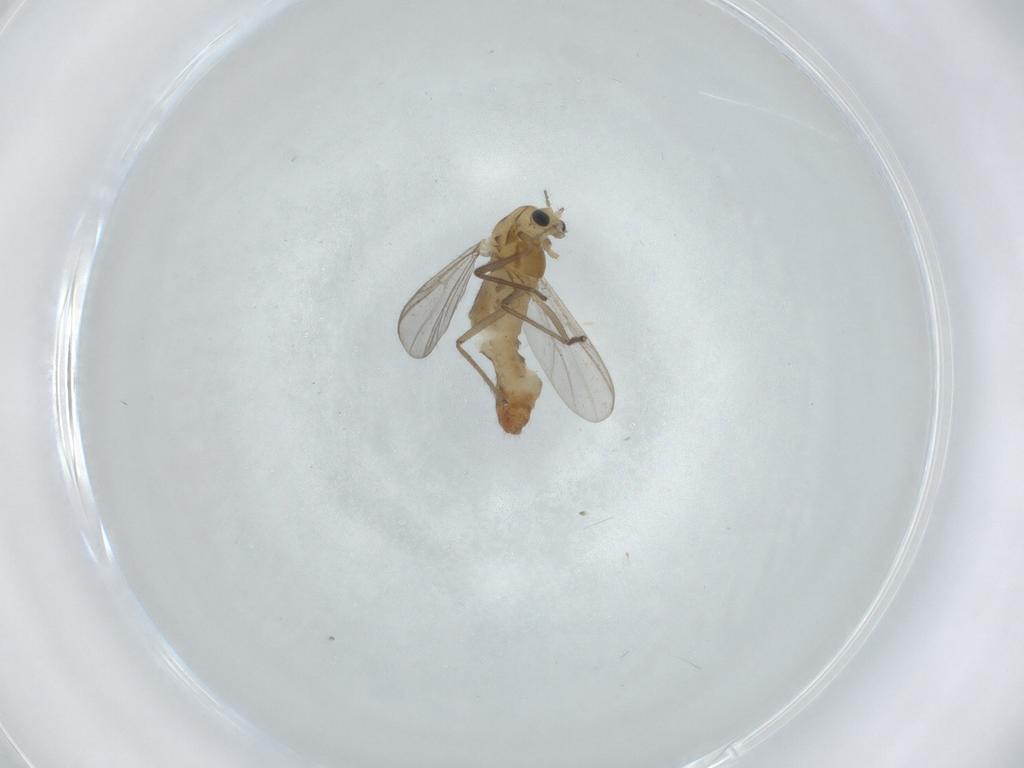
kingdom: Animalia
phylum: Arthropoda
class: Insecta
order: Diptera
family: Chironomidae
